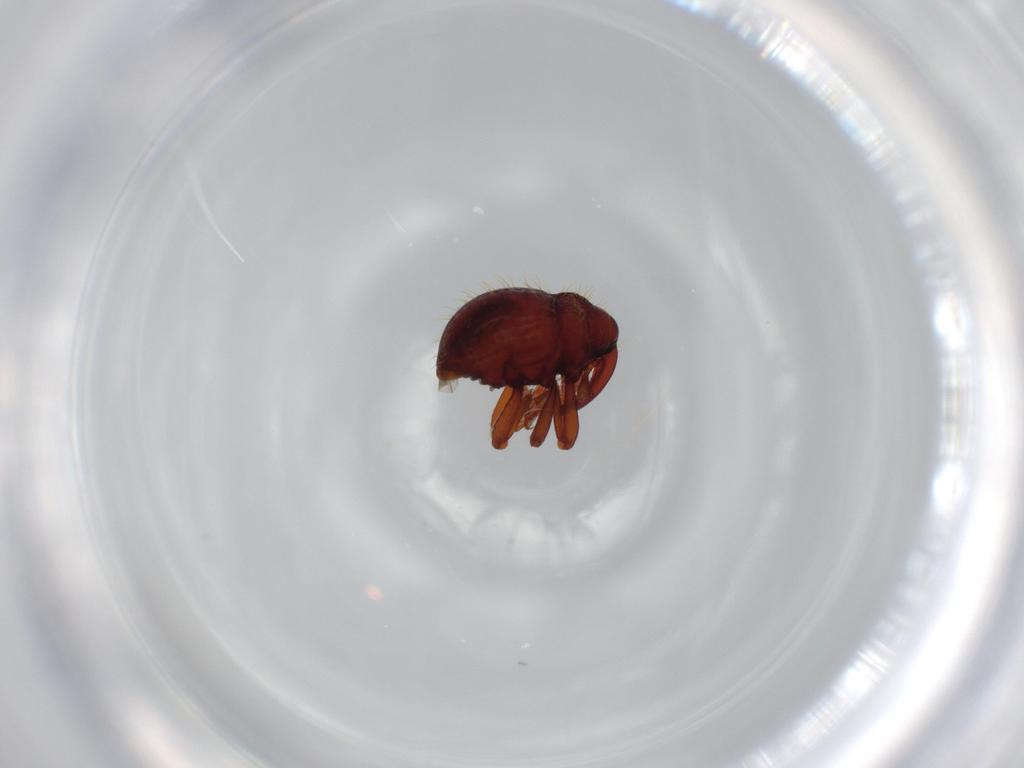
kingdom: Animalia
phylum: Arthropoda
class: Insecta
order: Coleoptera
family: Curculionidae
